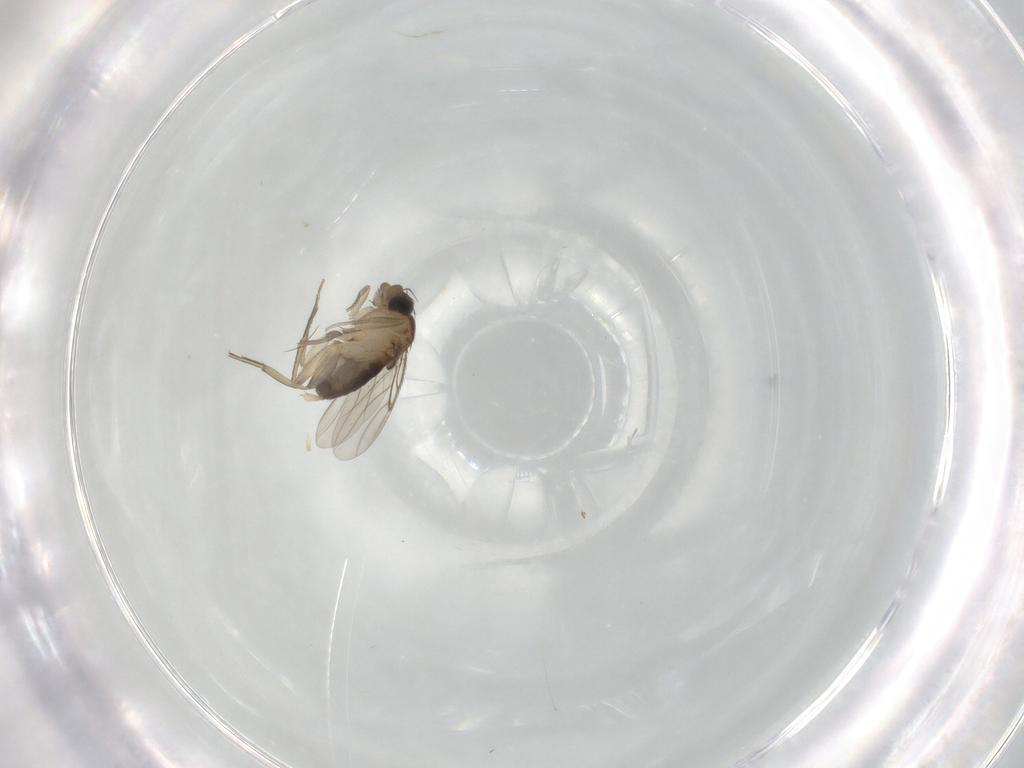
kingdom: Animalia
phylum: Arthropoda
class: Insecta
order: Diptera
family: Phoridae
